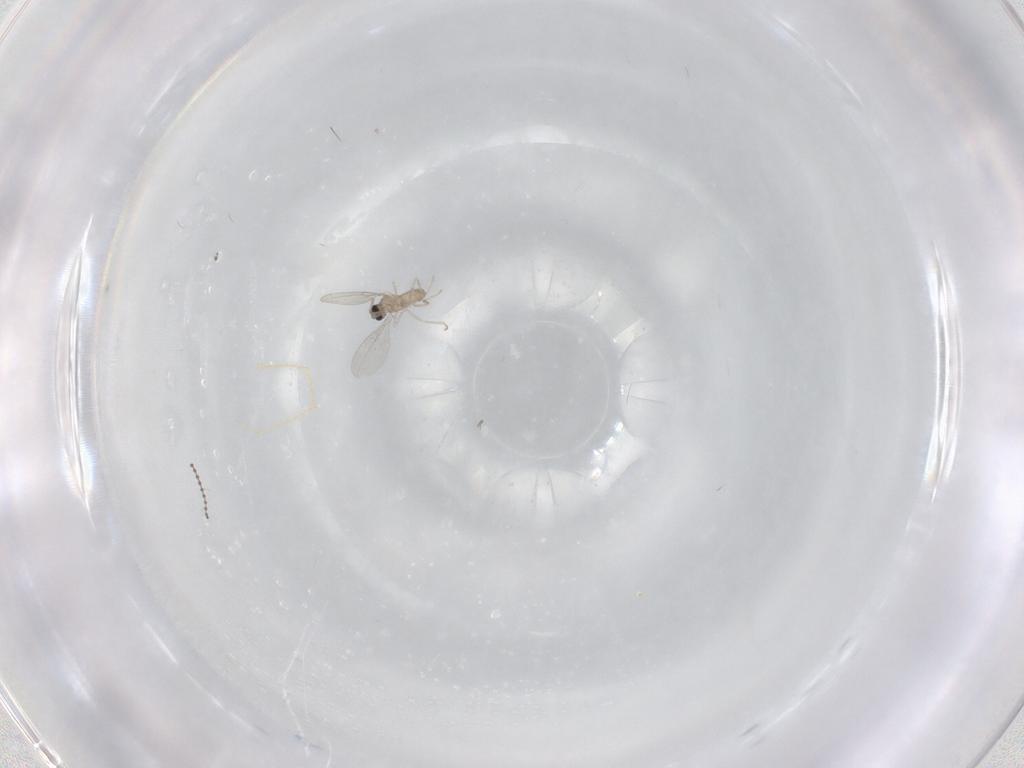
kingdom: Animalia
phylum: Arthropoda
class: Insecta
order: Diptera
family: Cecidomyiidae
